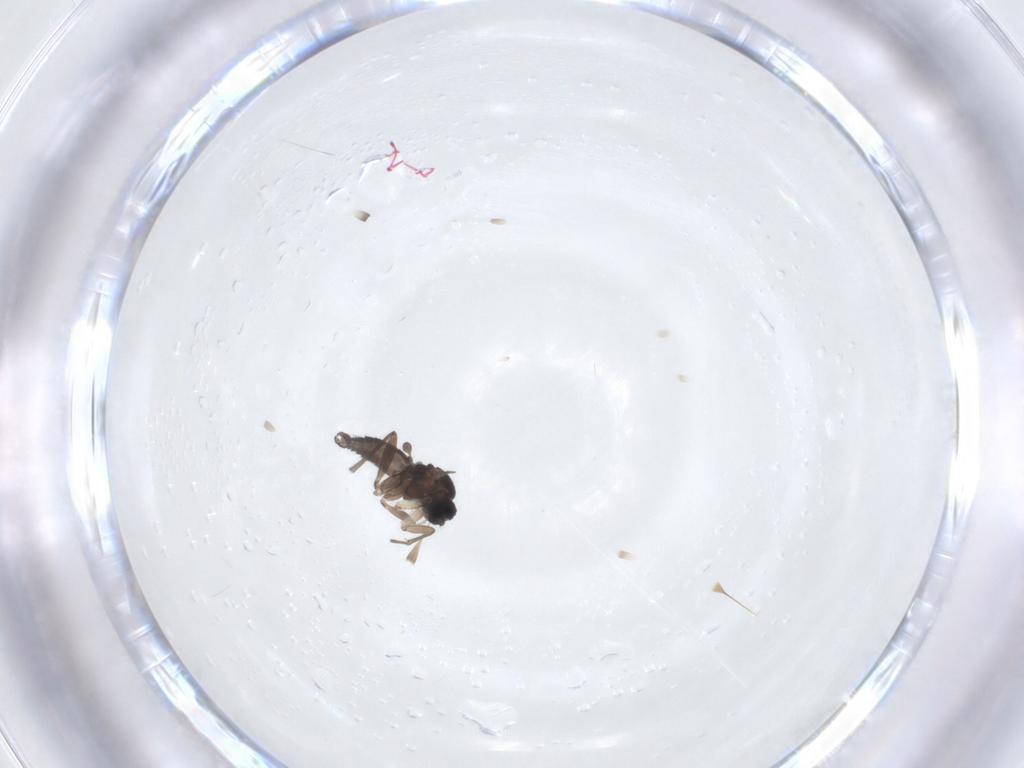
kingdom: Animalia
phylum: Arthropoda
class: Insecta
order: Diptera
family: Sciaridae
